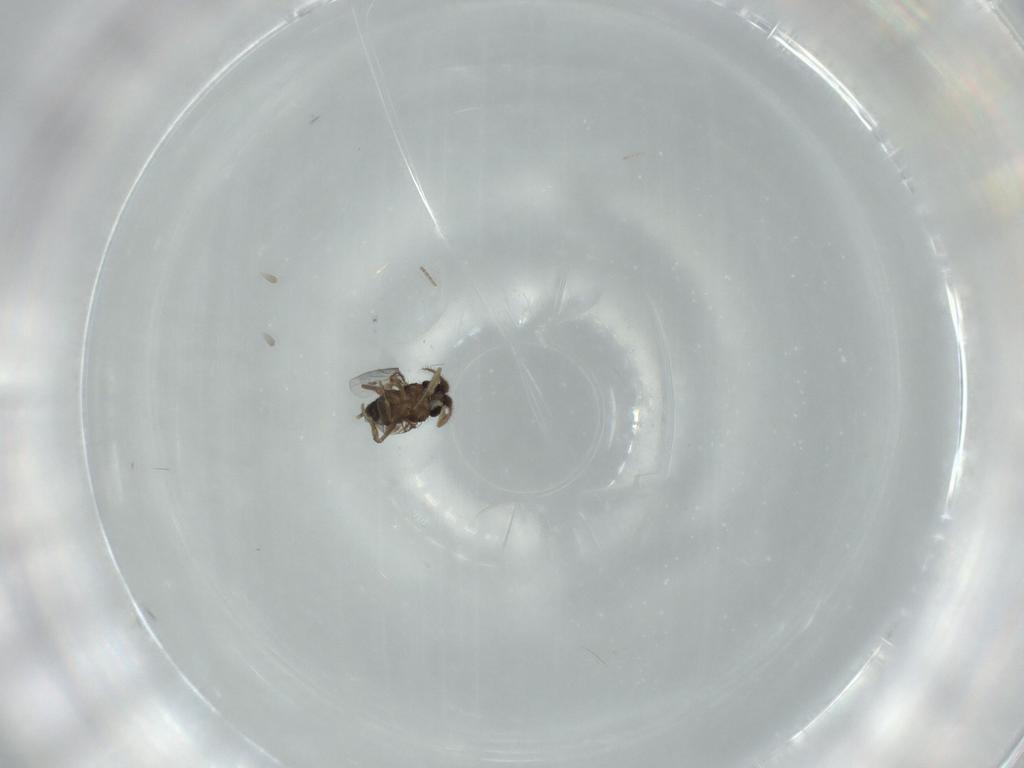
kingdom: Animalia
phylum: Arthropoda
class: Insecta
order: Diptera
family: Phoridae
